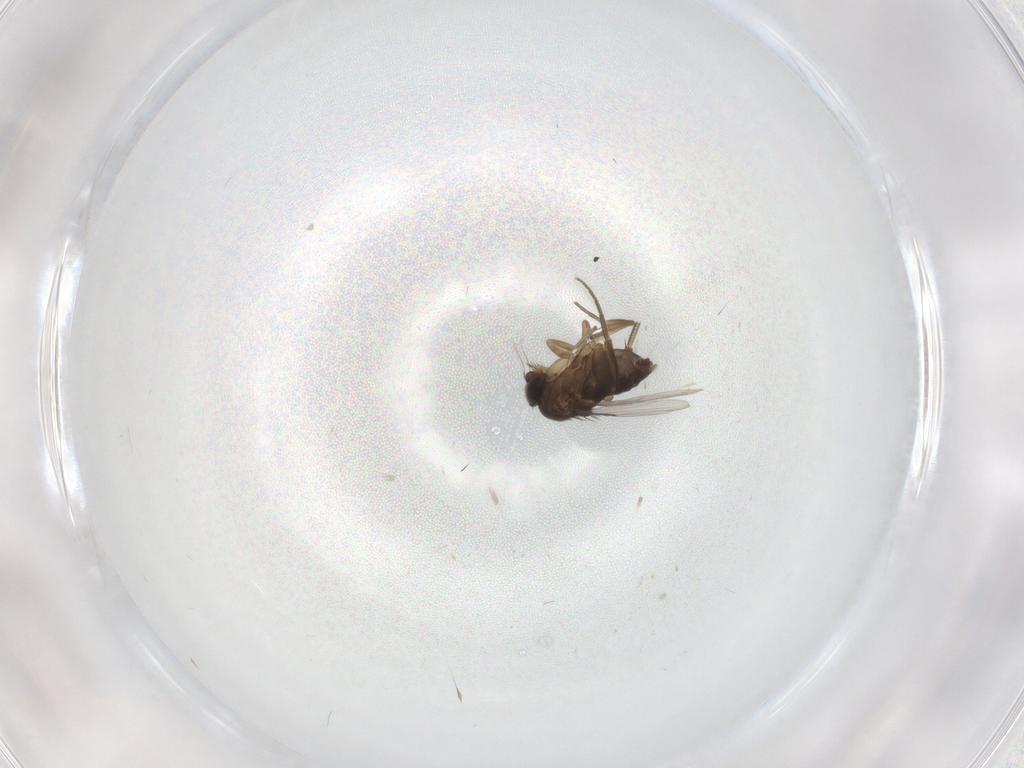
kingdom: Animalia
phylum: Arthropoda
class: Insecta
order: Diptera
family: Phoridae
